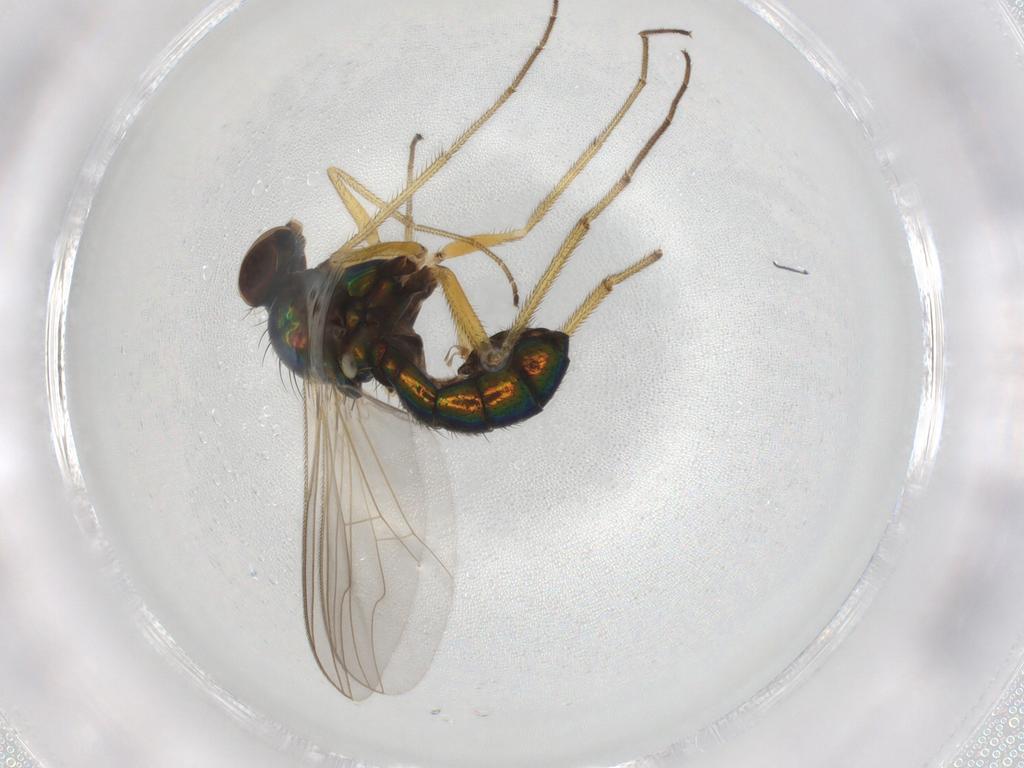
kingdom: Animalia
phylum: Arthropoda
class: Insecta
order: Diptera
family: Dolichopodidae
